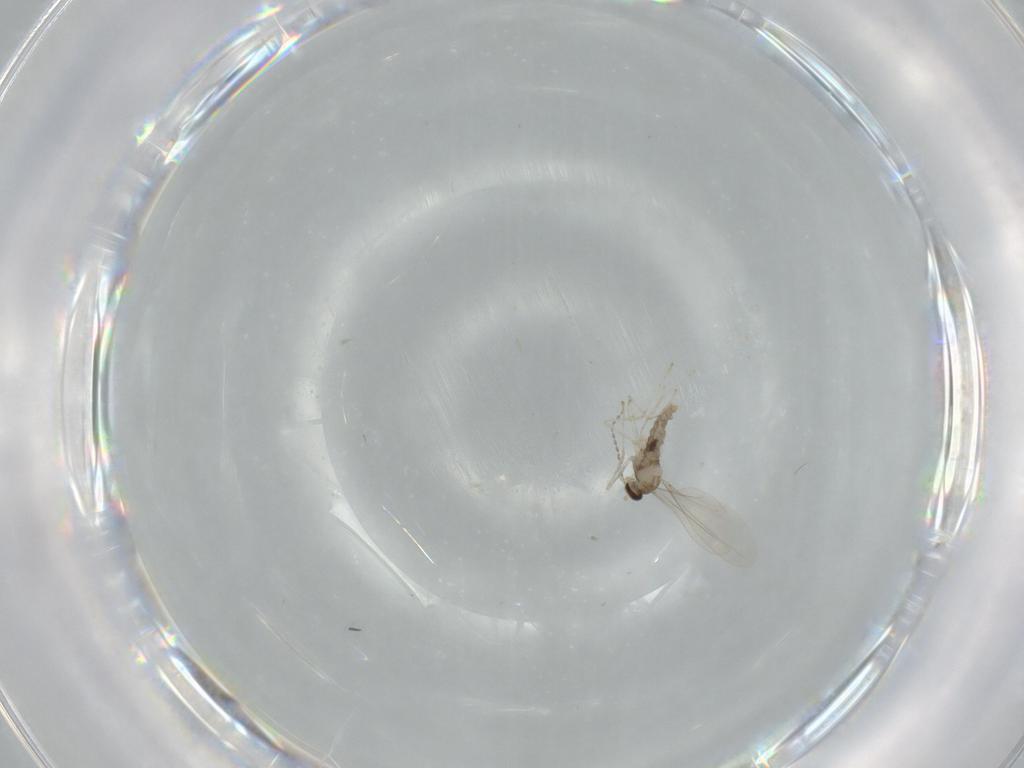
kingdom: Animalia
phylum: Arthropoda
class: Insecta
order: Diptera
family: Cecidomyiidae
